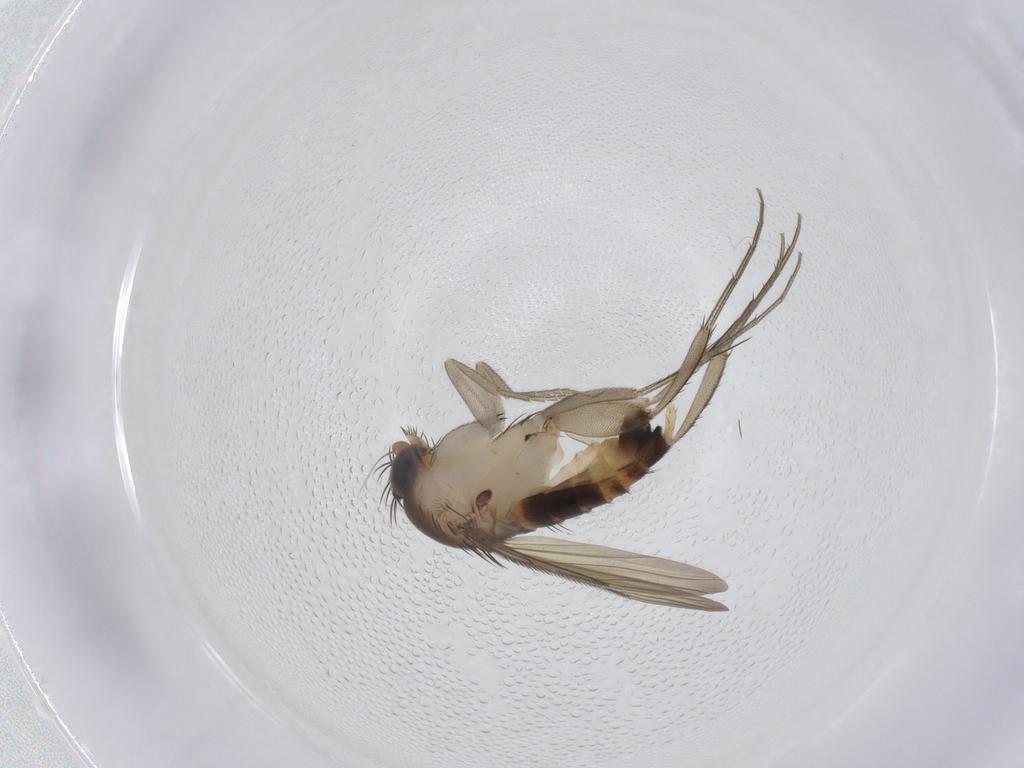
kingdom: Animalia
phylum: Arthropoda
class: Insecta
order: Diptera
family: Phoridae
